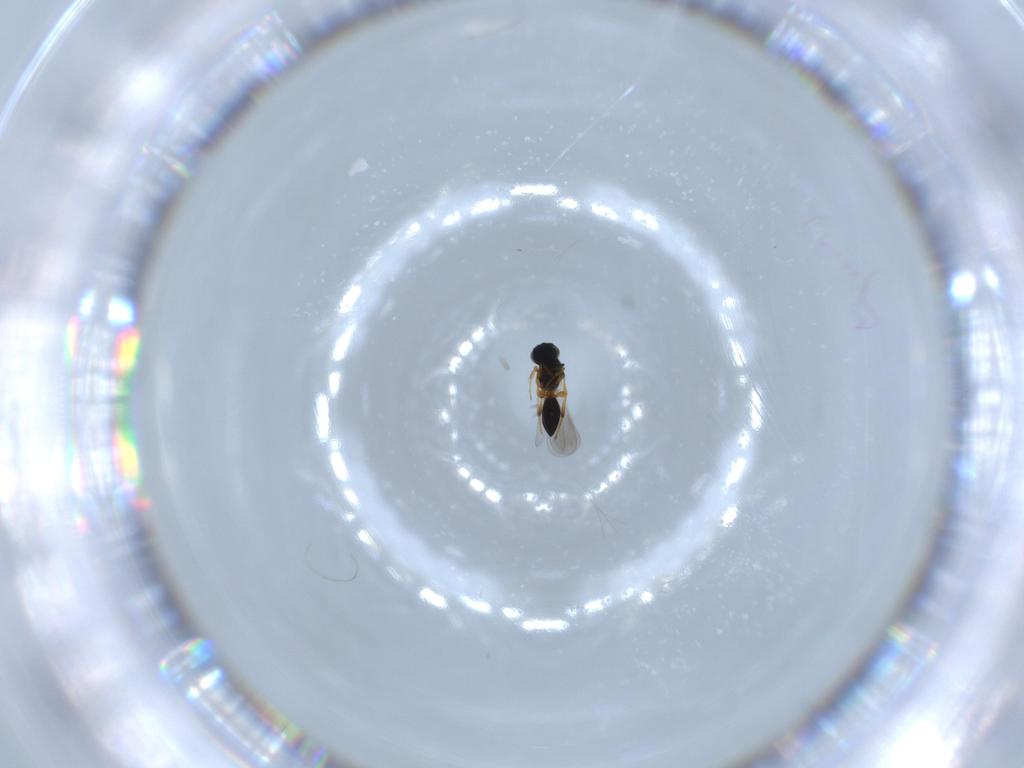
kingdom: Animalia
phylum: Arthropoda
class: Insecta
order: Hymenoptera
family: Platygastridae
